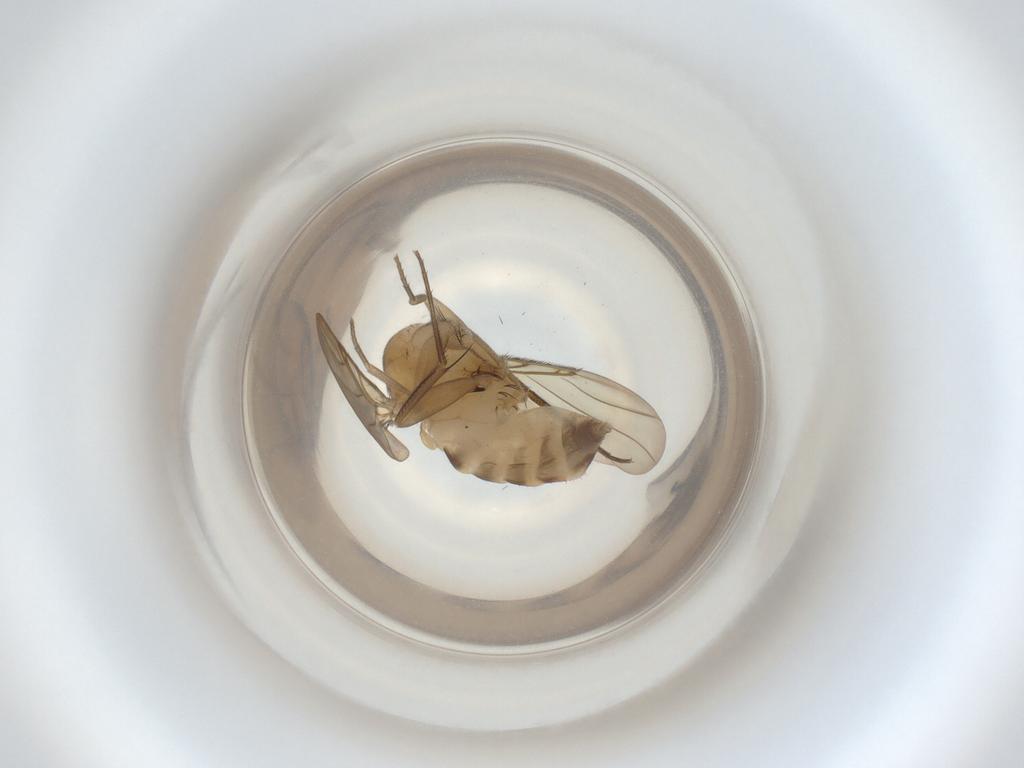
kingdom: Animalia
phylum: Arthropoda
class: Insecta
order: Diptera
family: Phoridae
